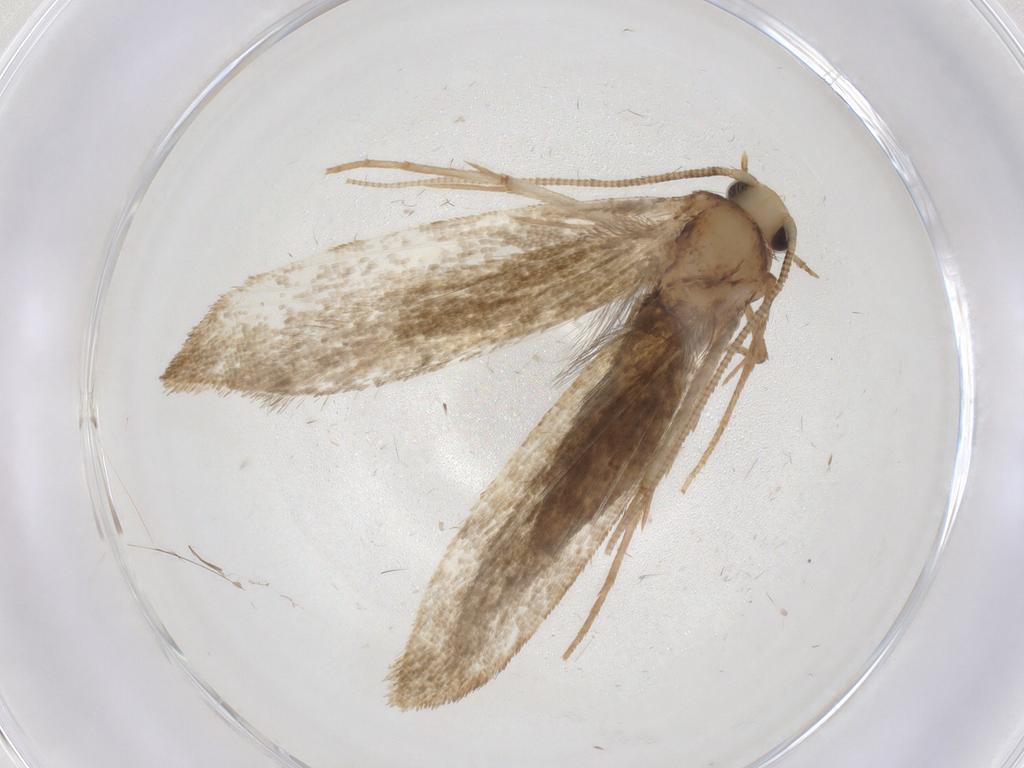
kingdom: Animalia
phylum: Arthropoda
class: Insecta
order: Lepidoptera
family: Noctuidae
